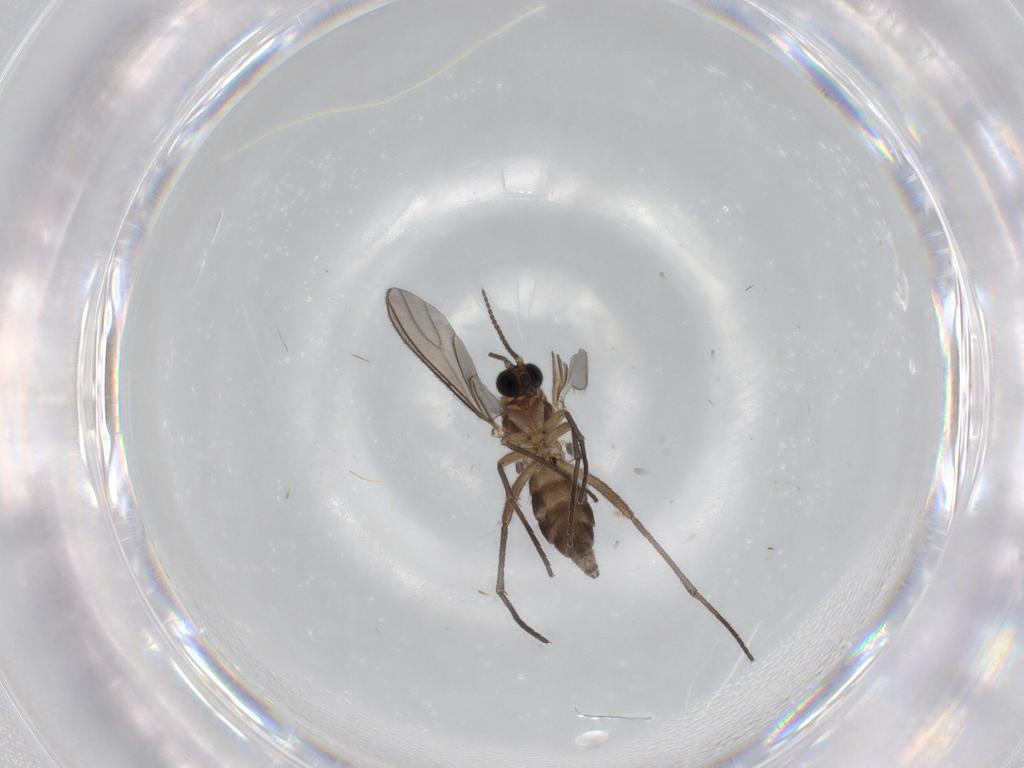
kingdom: Animalia
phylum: Arthropoda
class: Insecta
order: Diptera
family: Sciaridae
